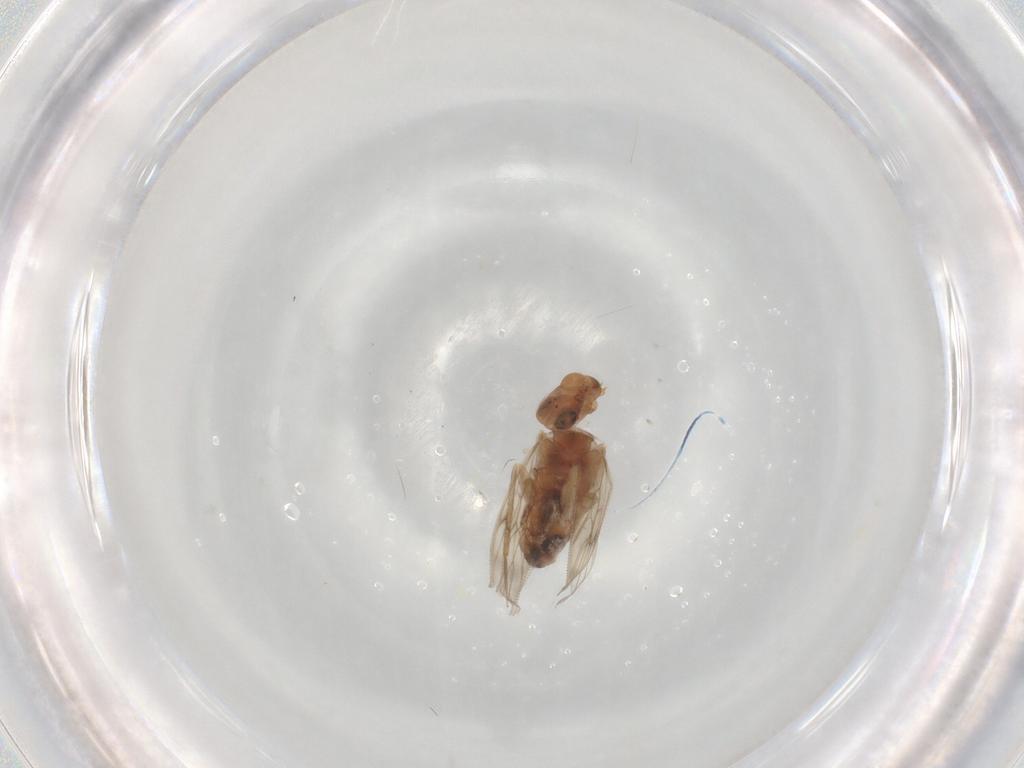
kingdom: Animalia
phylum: Arthropoda
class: Insecta
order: Psocodea
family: Lepidopsocidae
